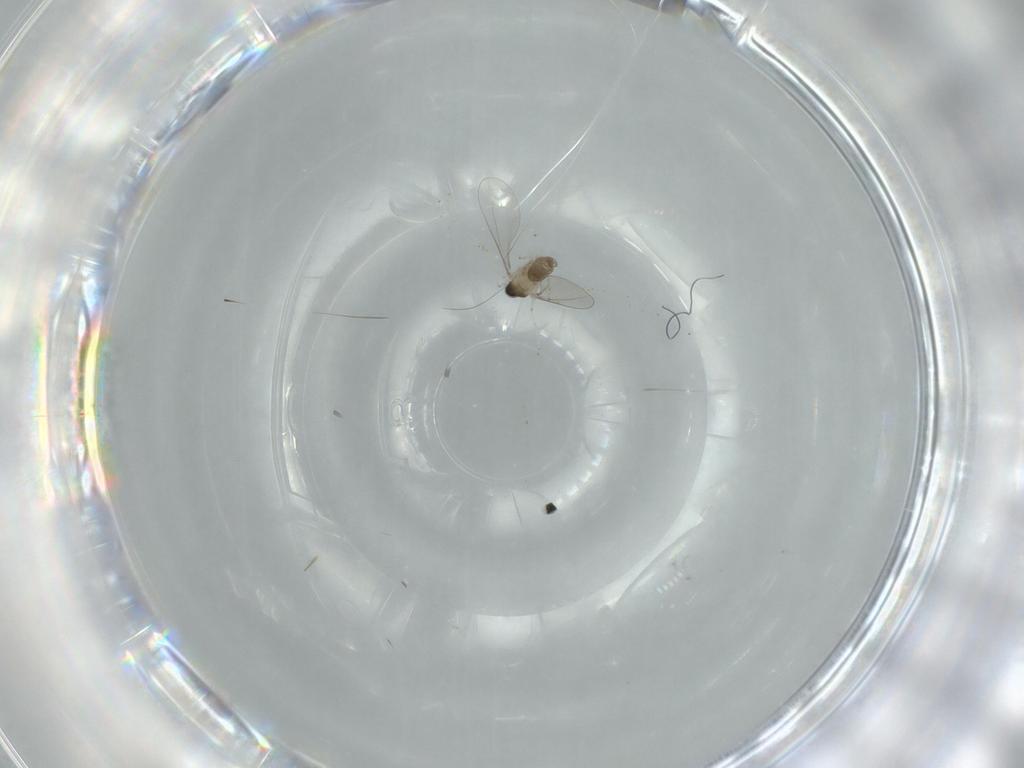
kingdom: Animalia
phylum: Arthropoda
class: Insecta
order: Diptera
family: Cecidomyiidae
